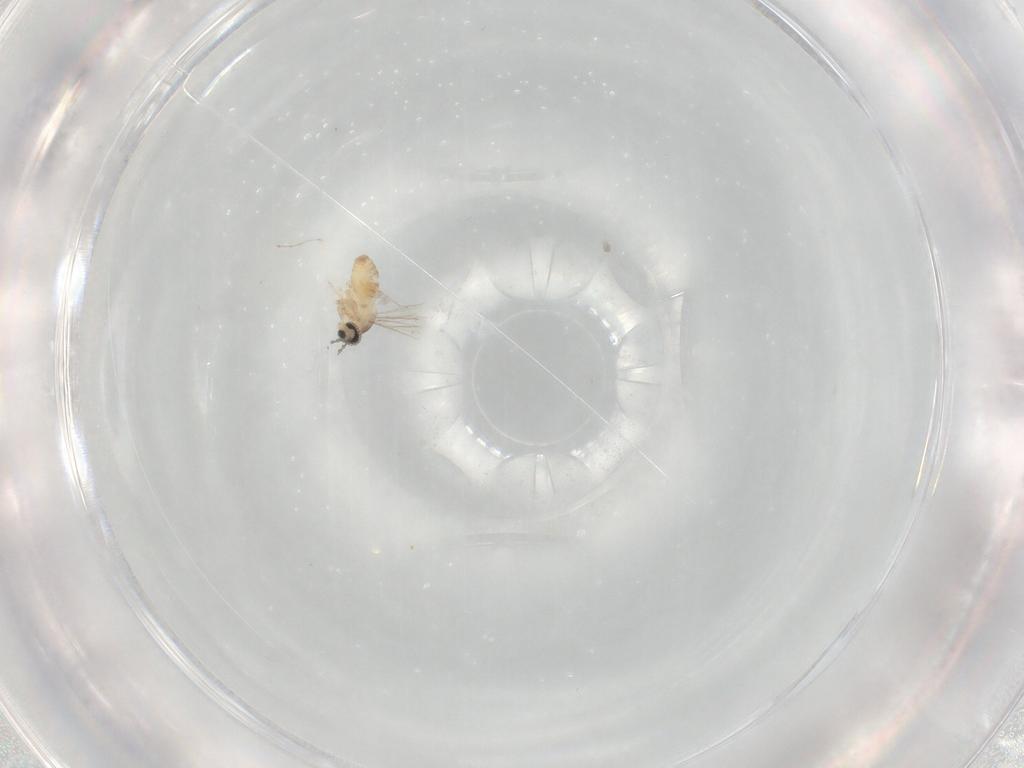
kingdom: Animalia
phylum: Arthropoda
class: Insecta
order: Diptera
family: Cecidomyiidae
